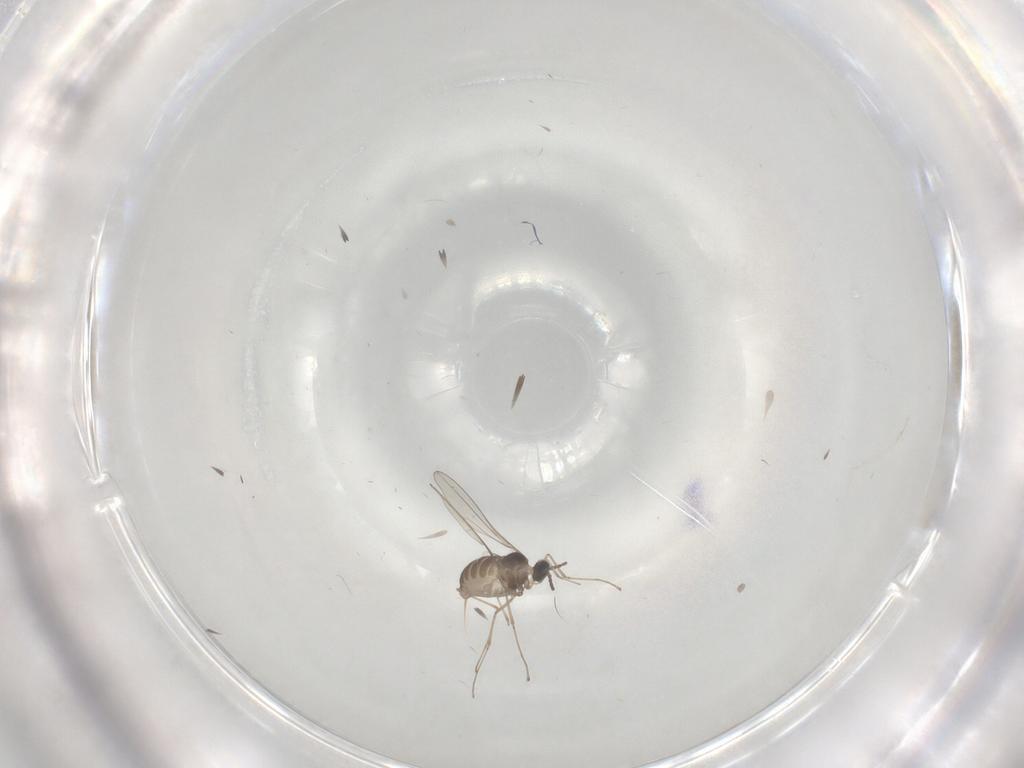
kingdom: Animalia
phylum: Arthropoda
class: Insecta
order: Diptera
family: Cecidomyiidae
